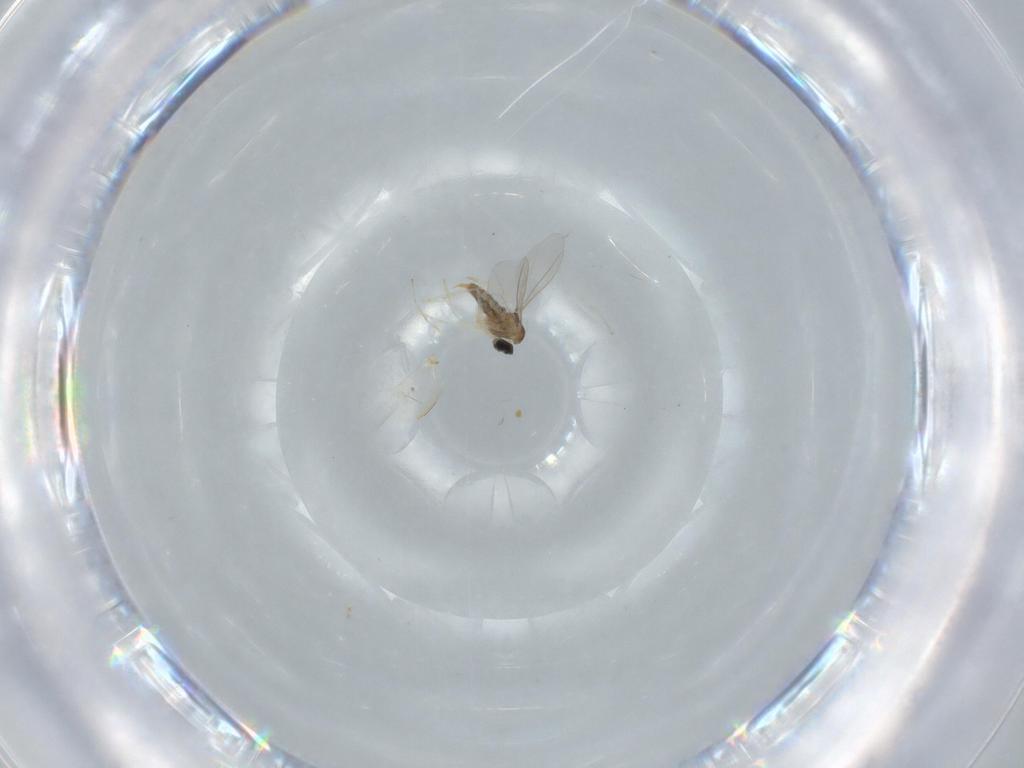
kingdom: Animalia
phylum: Arthropoda
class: Insecta
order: Diptera
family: Cecidomyiidae
